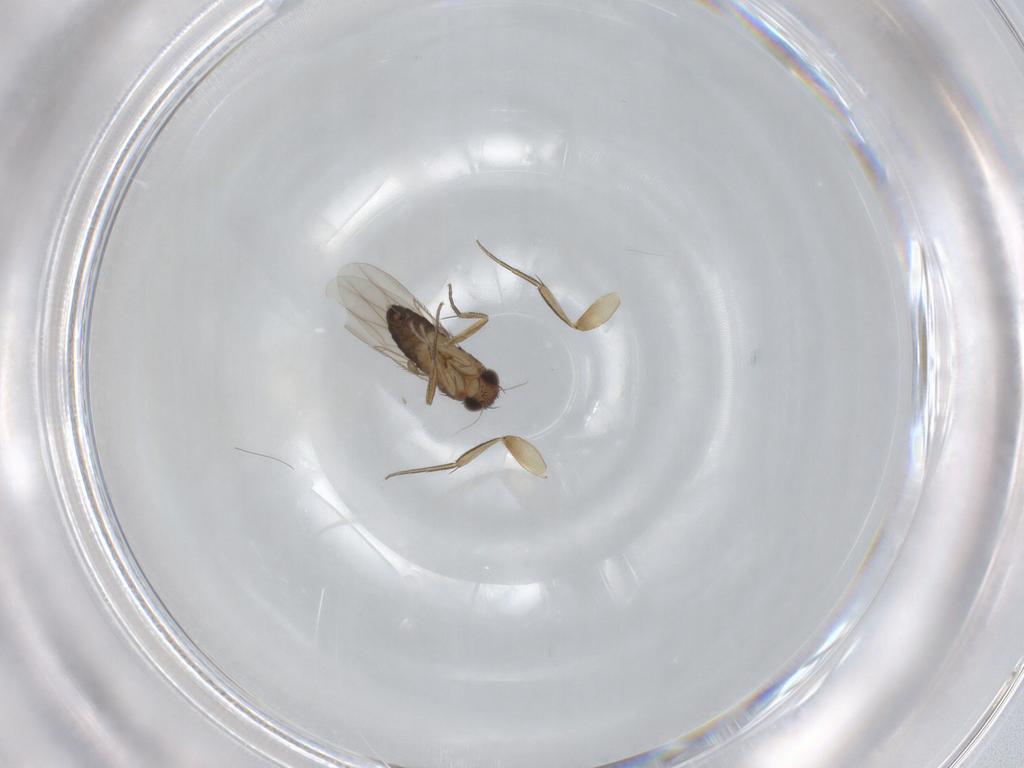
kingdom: Animalia
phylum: Arthropoda
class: Insecta
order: Diptera
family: Phoridae
